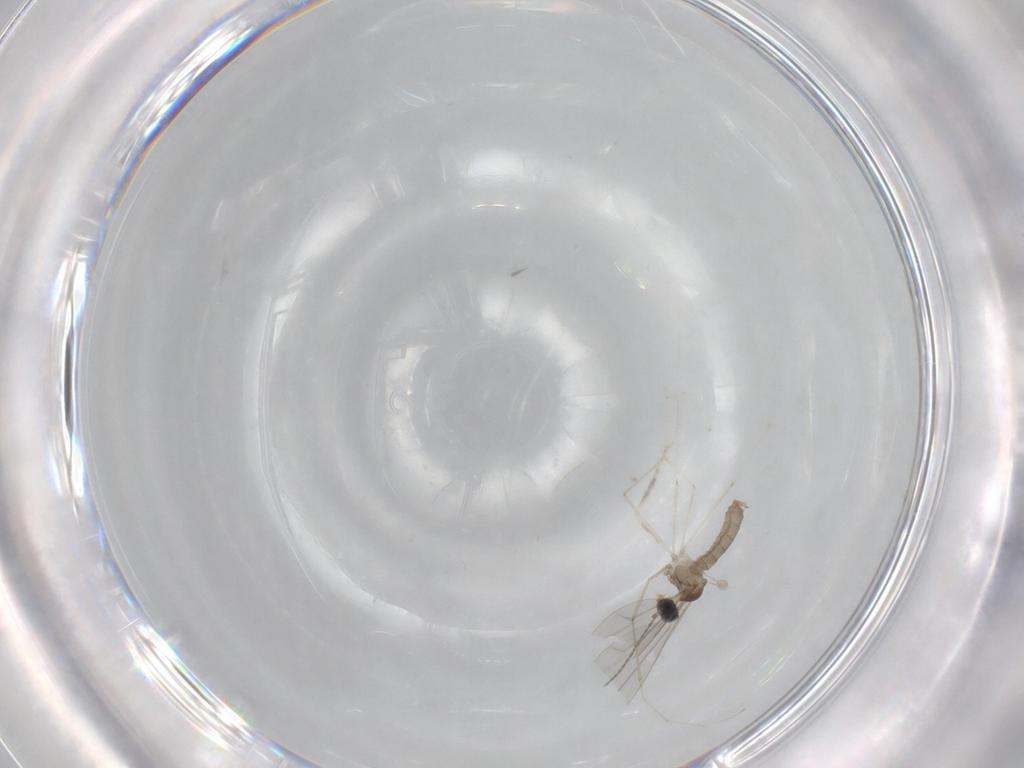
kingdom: Animalia
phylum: Arthropoda
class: Insecta
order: Diptera
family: Cecidomyiidae
